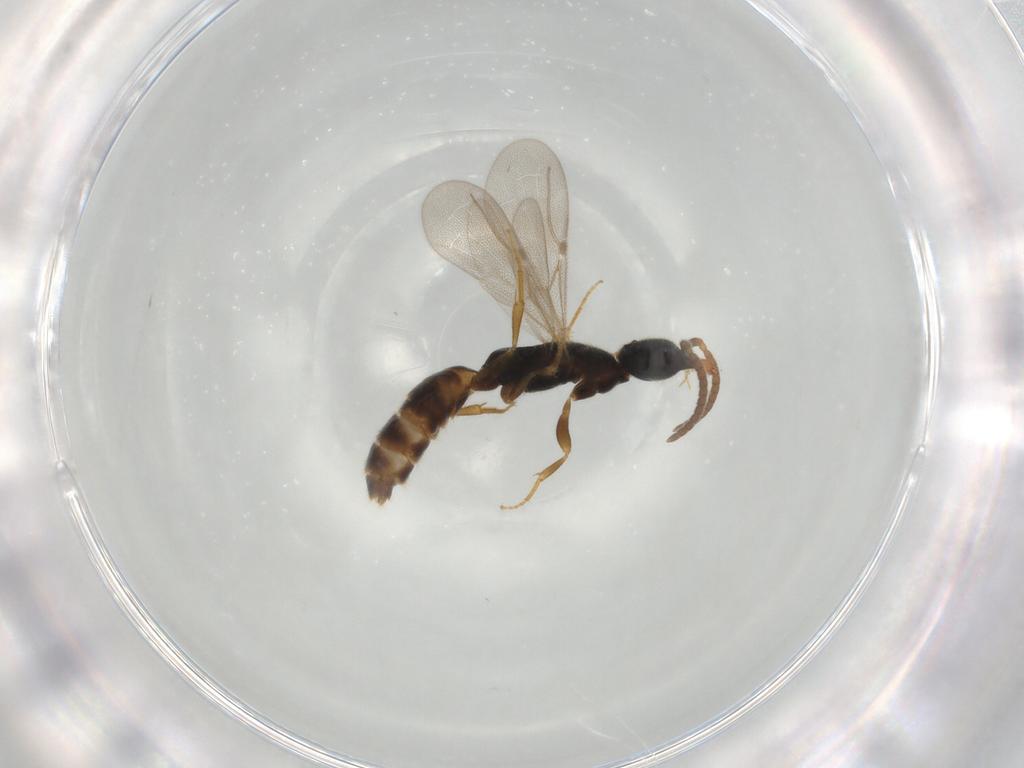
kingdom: Animalia
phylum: Arthropoda
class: Insecta
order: Hymenoptera
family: Bethylidae
